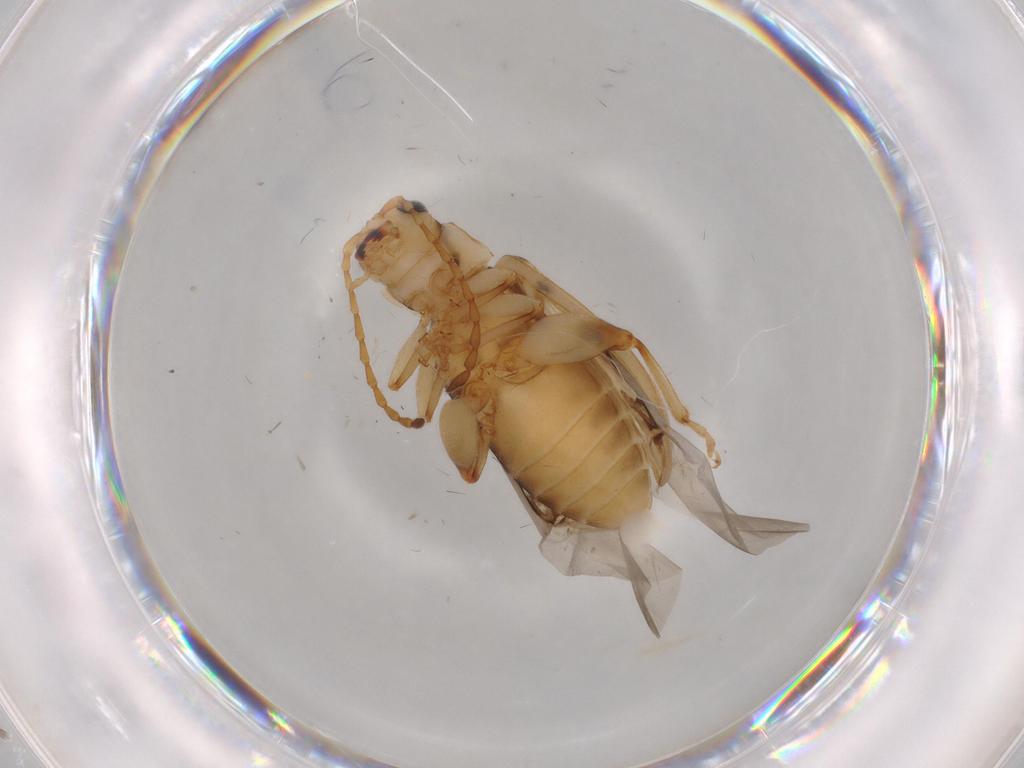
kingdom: Animalia
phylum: Arthropoda
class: Insecta
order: Coleoptera
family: Chrysomelidae
